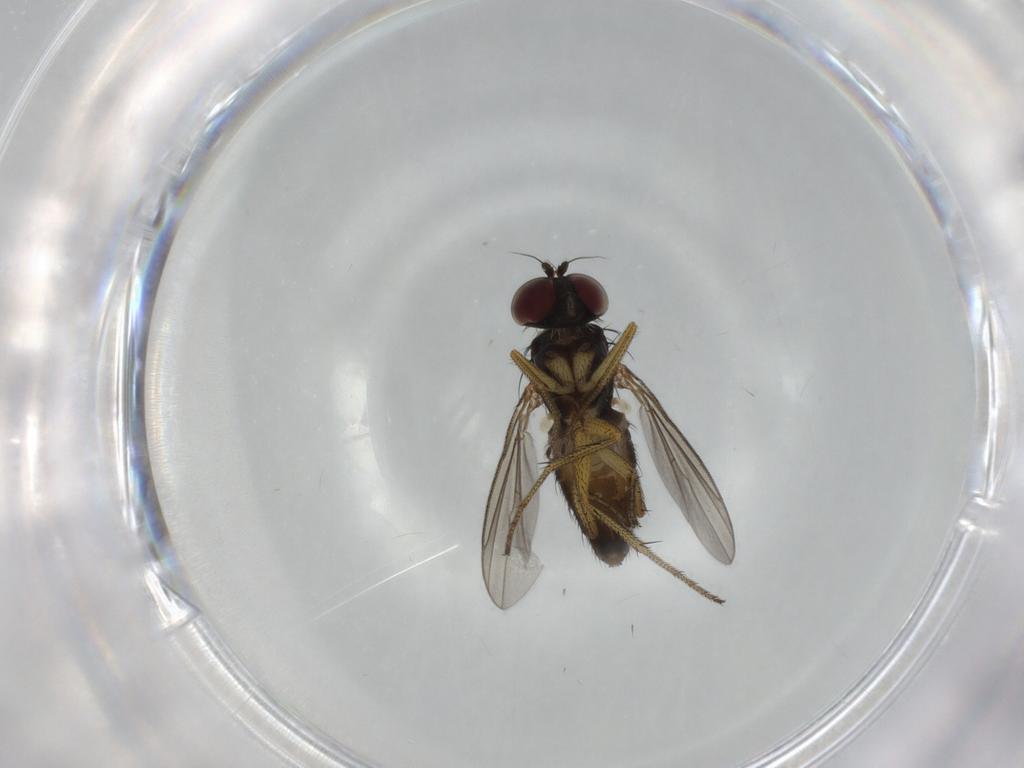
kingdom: Animalia
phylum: Arthropoda
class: Insecta
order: Diptera
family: Dolichopodidae
